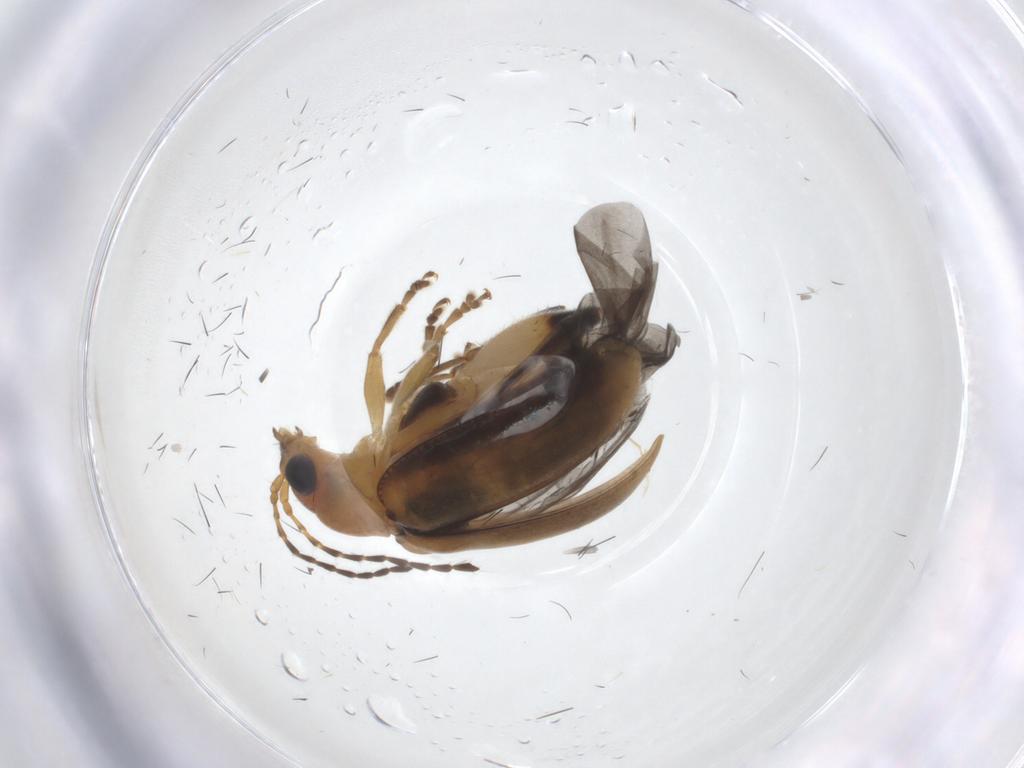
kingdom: Animalia
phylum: Arthropoda
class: Insecta
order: Coleoptera
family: Chrysomelidae
